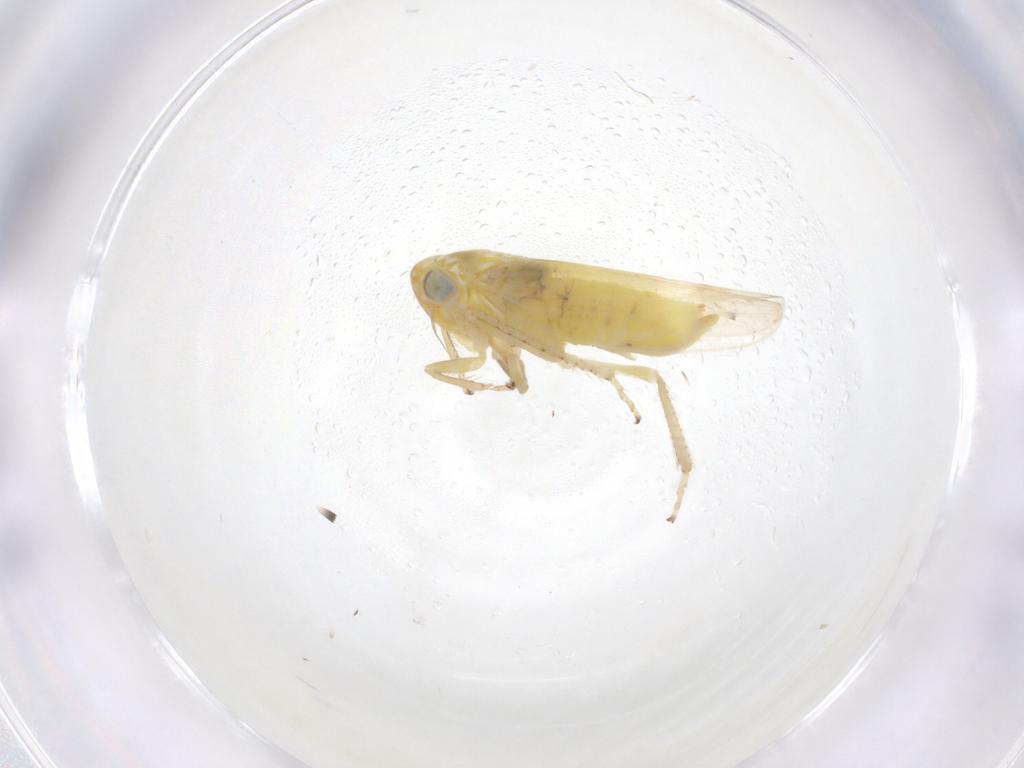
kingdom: Animalia
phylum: Arthropoda
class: Insecta
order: Hemiptera
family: Cicadellidae
